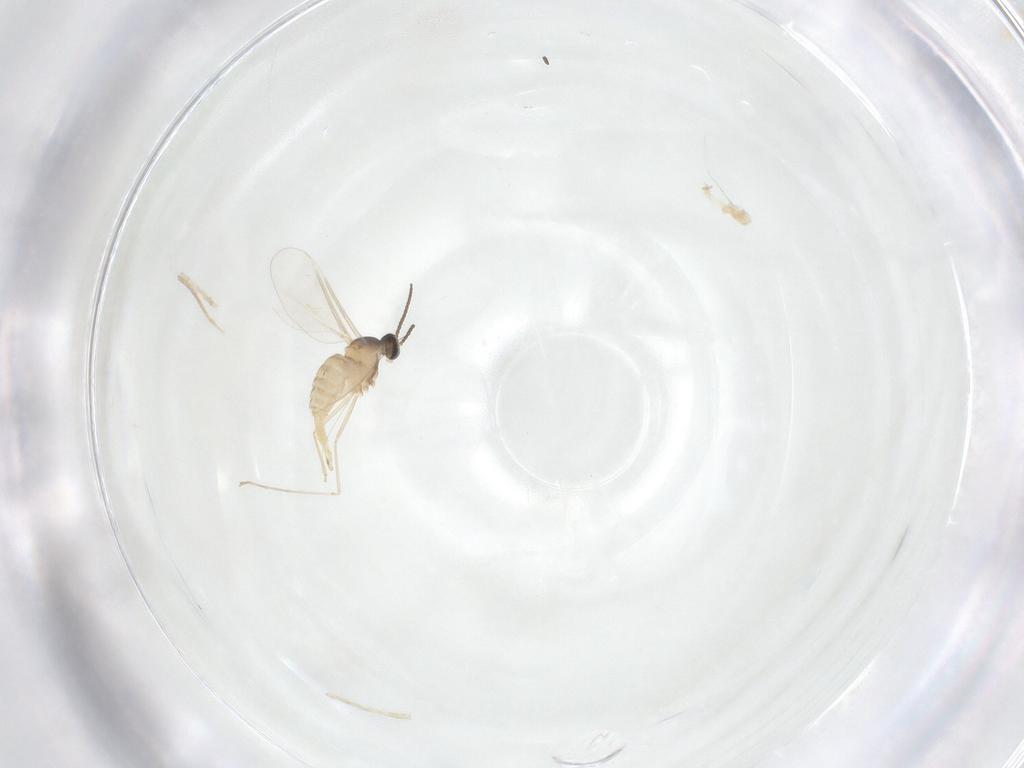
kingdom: Animalia
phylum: Arthropoda
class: Insecta
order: Diptera
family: Cecidomyiidae
